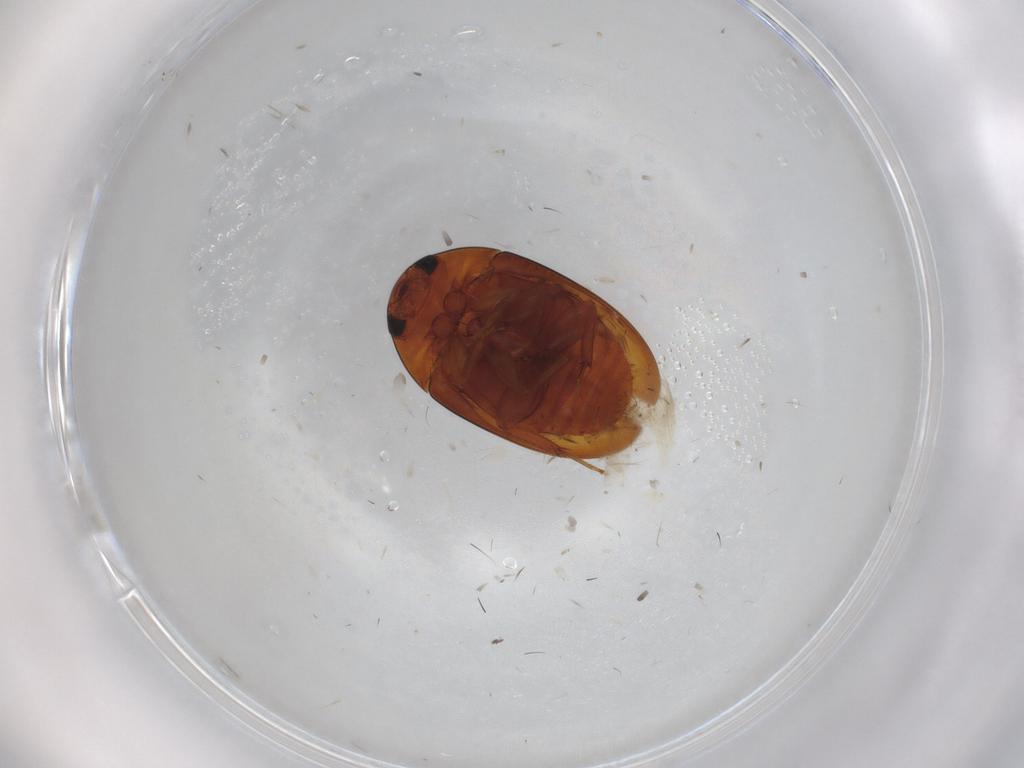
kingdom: Animalia
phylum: Arthropoda
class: Insecta
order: Coleoptera
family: Phalacridae
